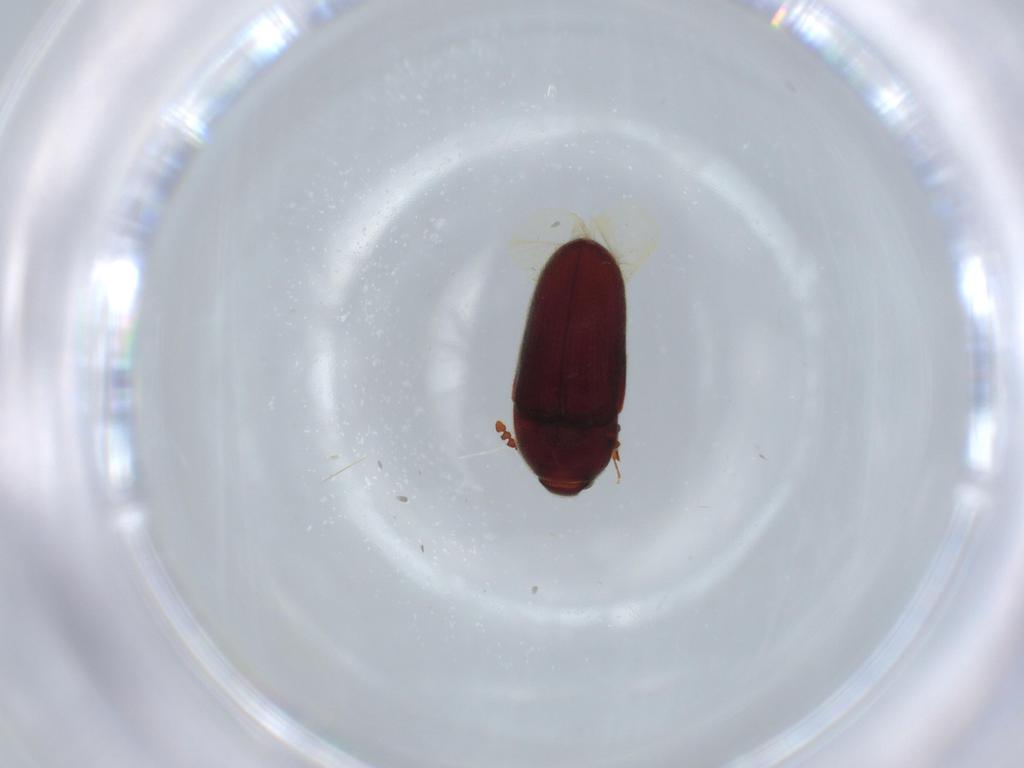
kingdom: Animalia
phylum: Arthropoda
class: Insecta
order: Coleoptera
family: Throscidae
